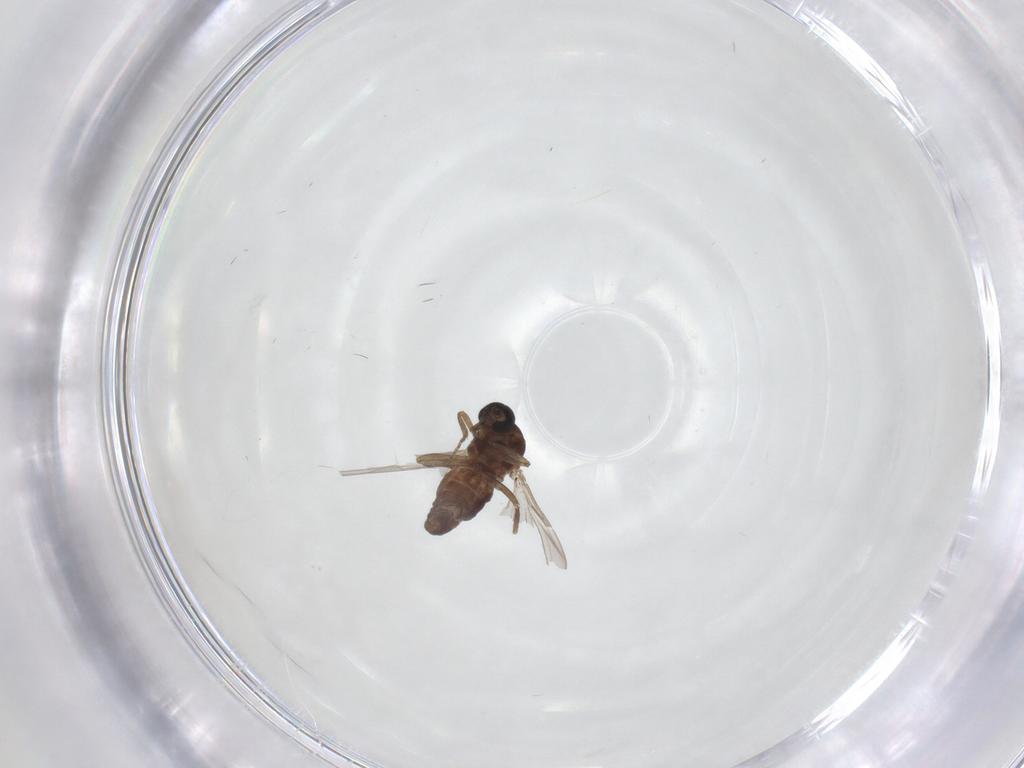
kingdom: Animalia
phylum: Arthropoda
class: Insecta
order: Diptera
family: Ceratopogonidae
